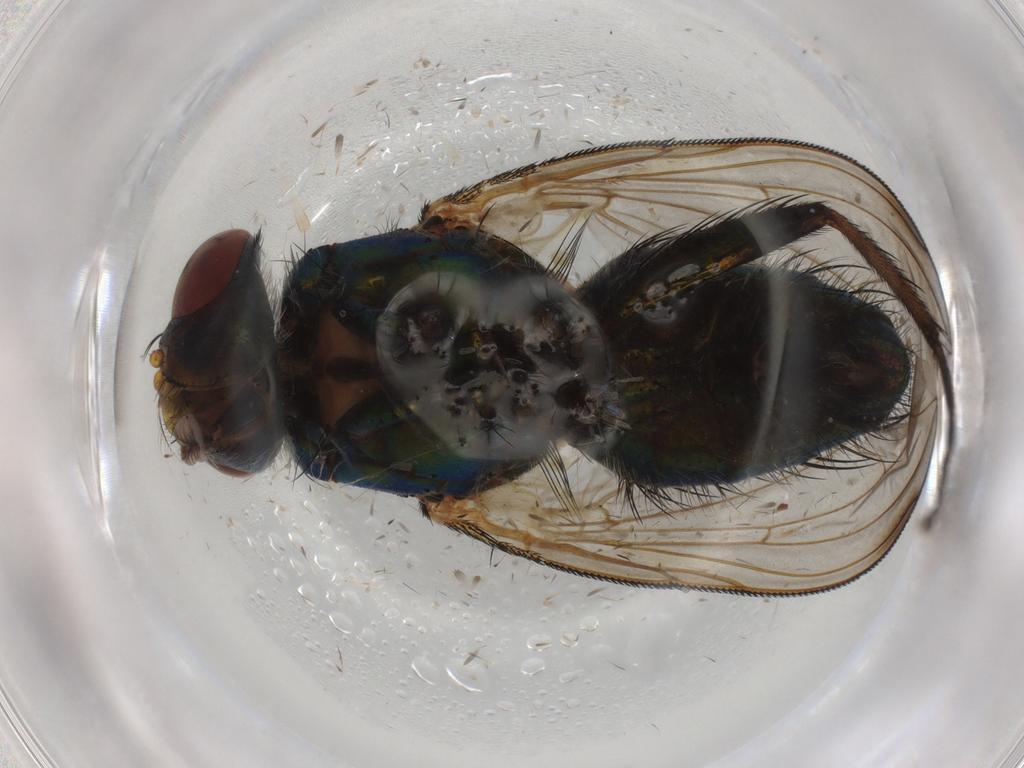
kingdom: Animalia
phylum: Arthropoda
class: Insecta
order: Diptera
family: Calliphoridae
